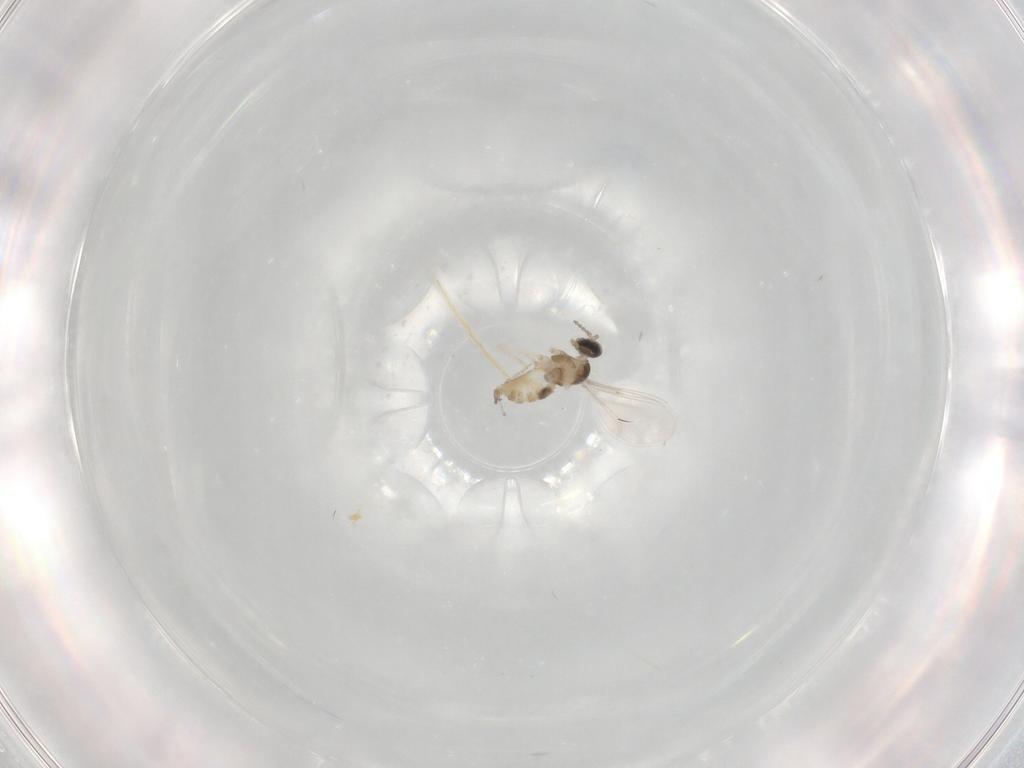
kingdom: Animalia
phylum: Arthropoda
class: Insecta
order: Diptera
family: Cecidomyiidae
